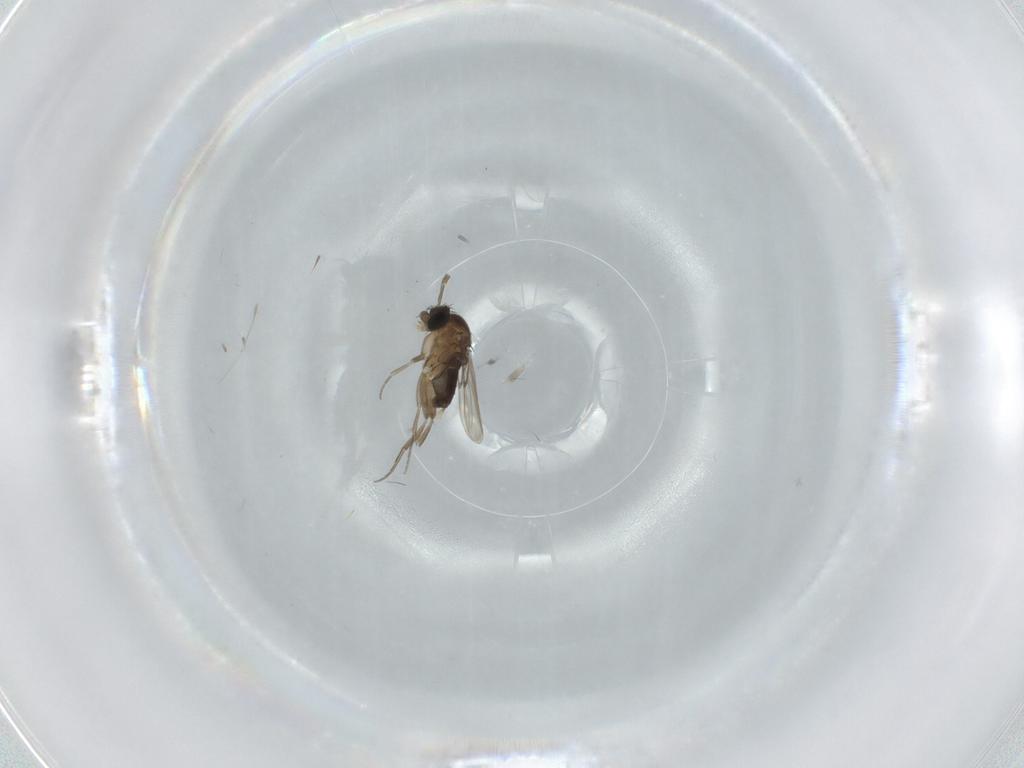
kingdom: Animalia
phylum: Arthropoda
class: Insecta
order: Diptera
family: Phoridae
